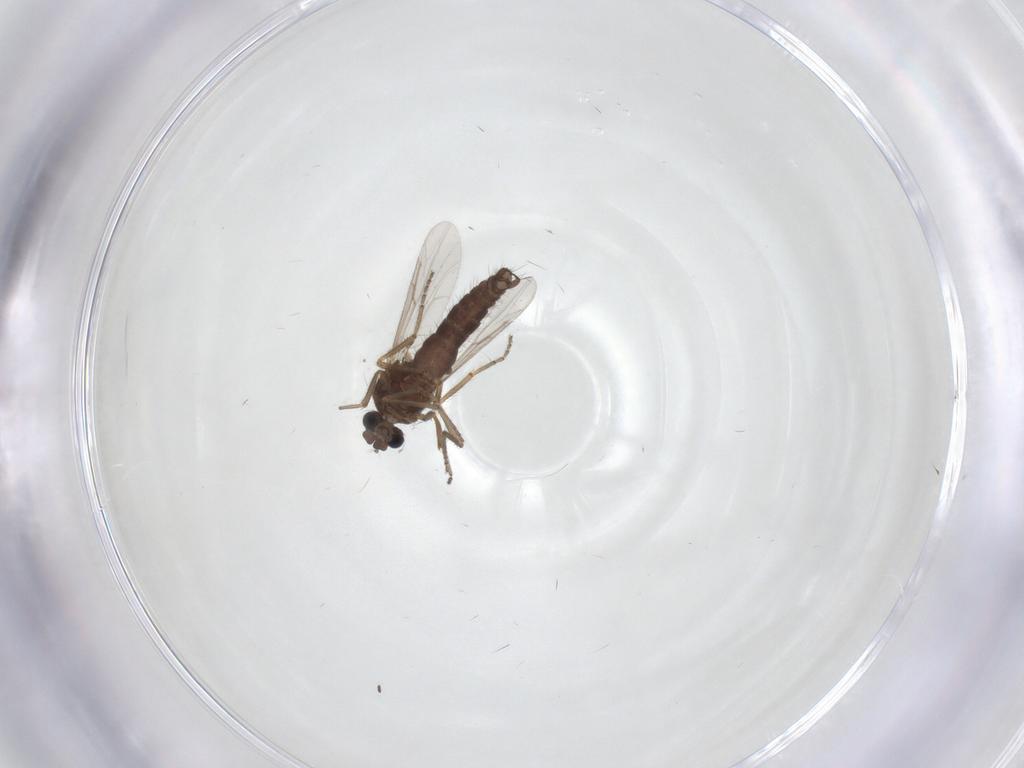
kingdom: Animalia
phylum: Arthropoda
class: Insecta
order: Diptera
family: Ceratopogonidae
